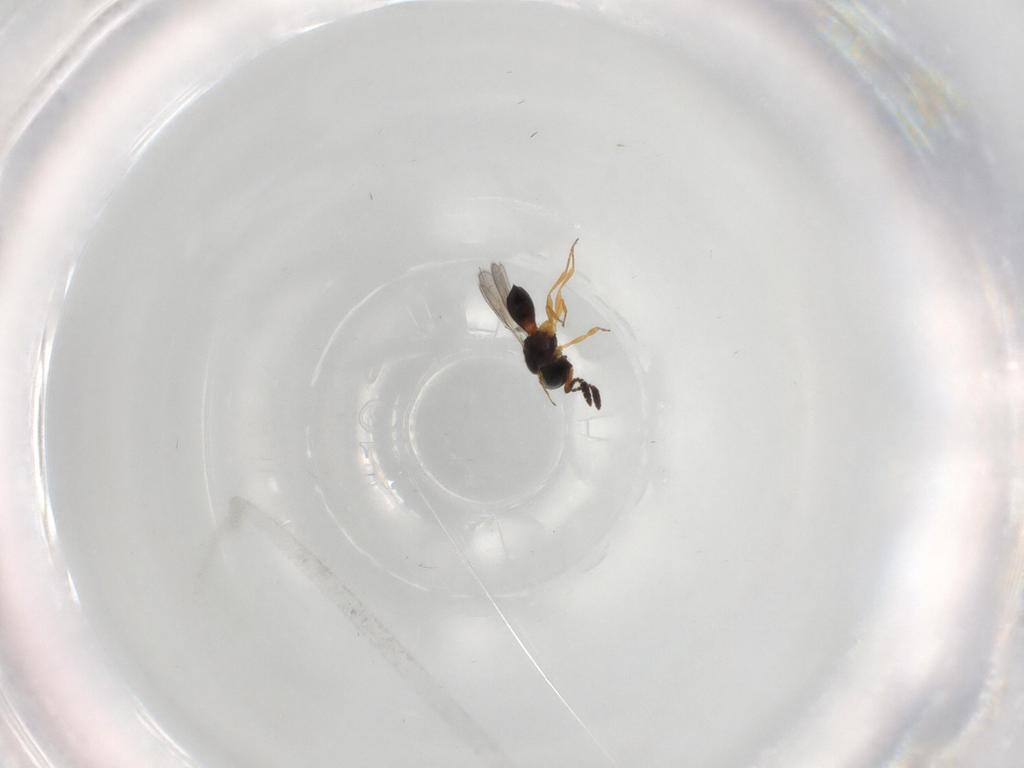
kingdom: Animalia
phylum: Arthropoda
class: Insecta
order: Hymenoptera
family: Scelionidae
